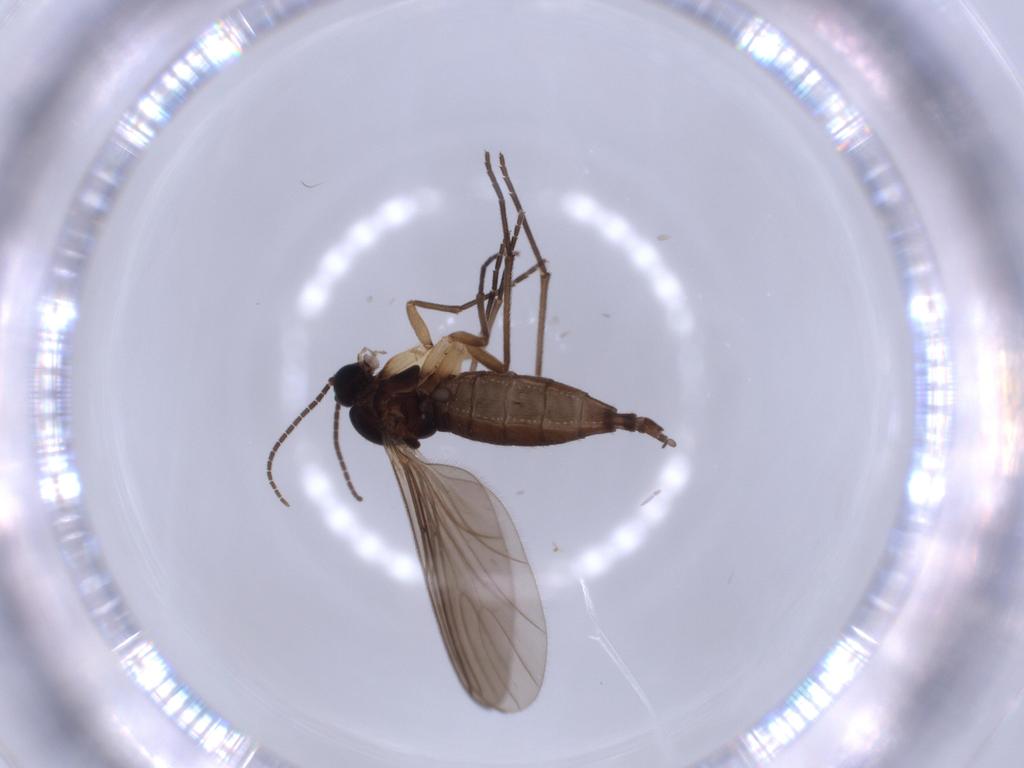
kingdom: Animalia
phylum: Arthropoda
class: Insecta
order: Diptera
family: Sciaridae
